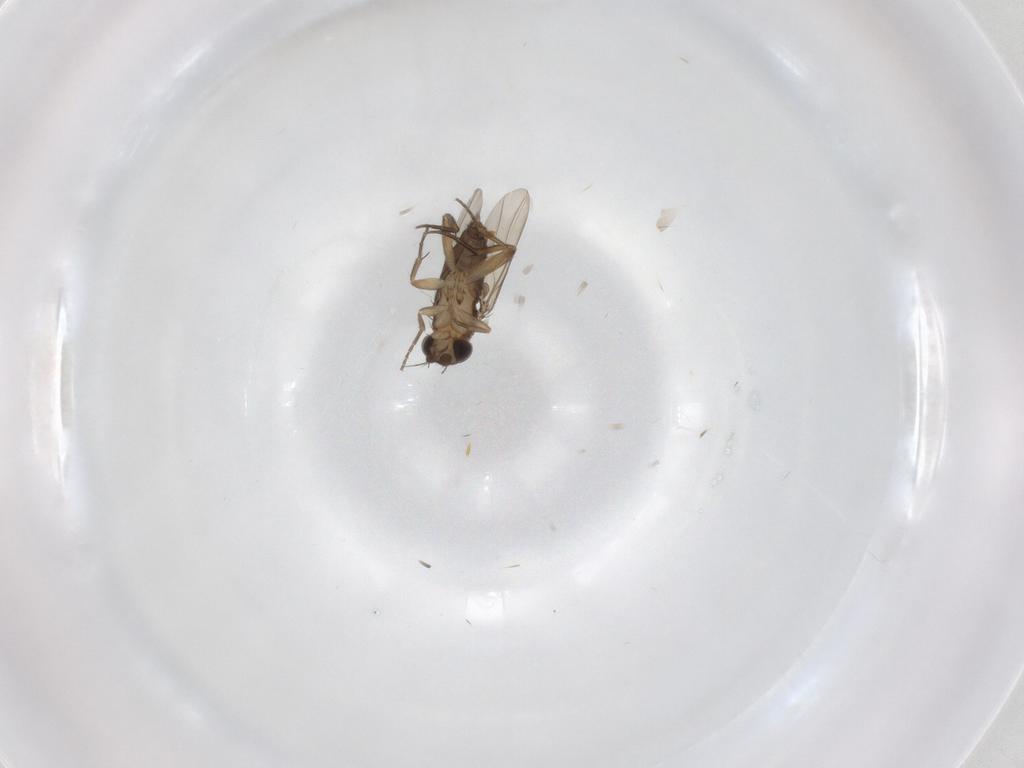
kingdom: Animalia
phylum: Arthropoda
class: Insecta
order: Diptera
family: Phoridae
